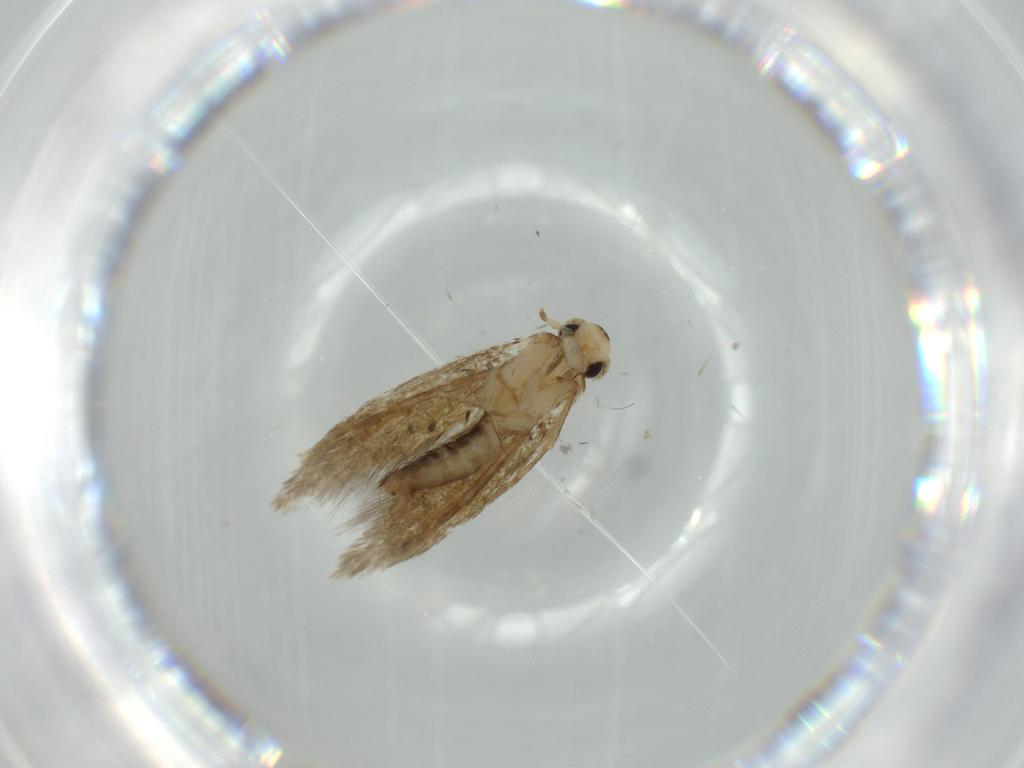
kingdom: Animalia
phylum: Arthropoda
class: Insecta
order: Lepidoptera
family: Tineidae
